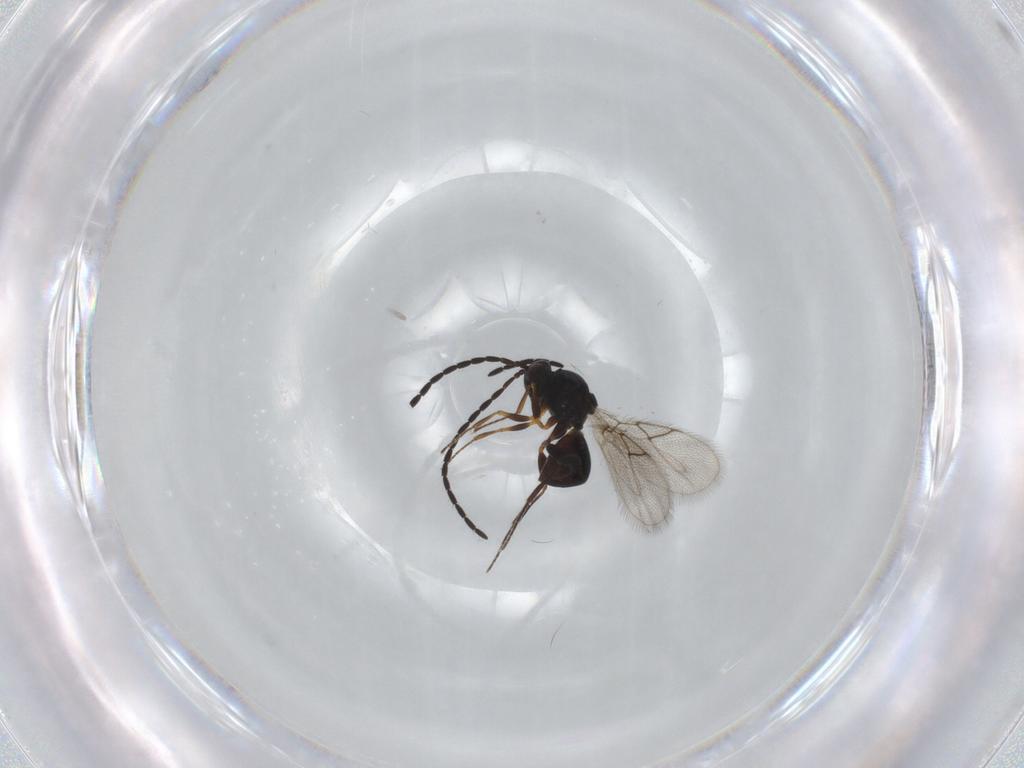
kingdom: Animalia
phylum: Arthropoda
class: Insecta
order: Hymenoptera
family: Figitidae
